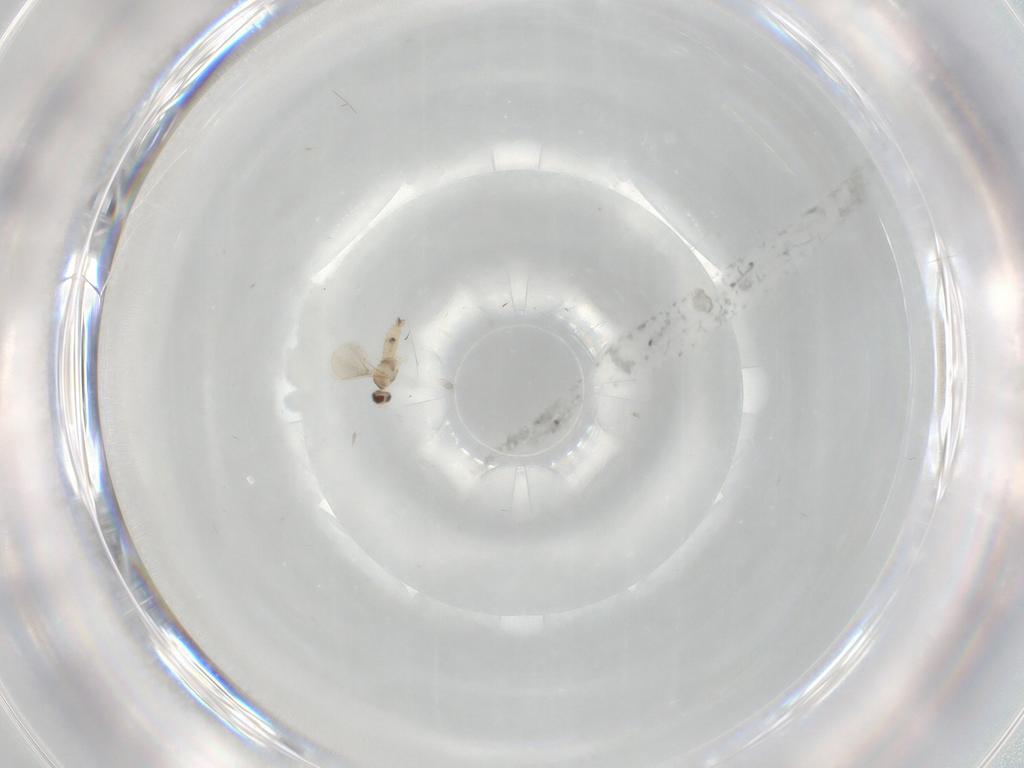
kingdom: Animalia
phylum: Arthropoda
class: Insecta
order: Diptera
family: Cecidomyiidae
